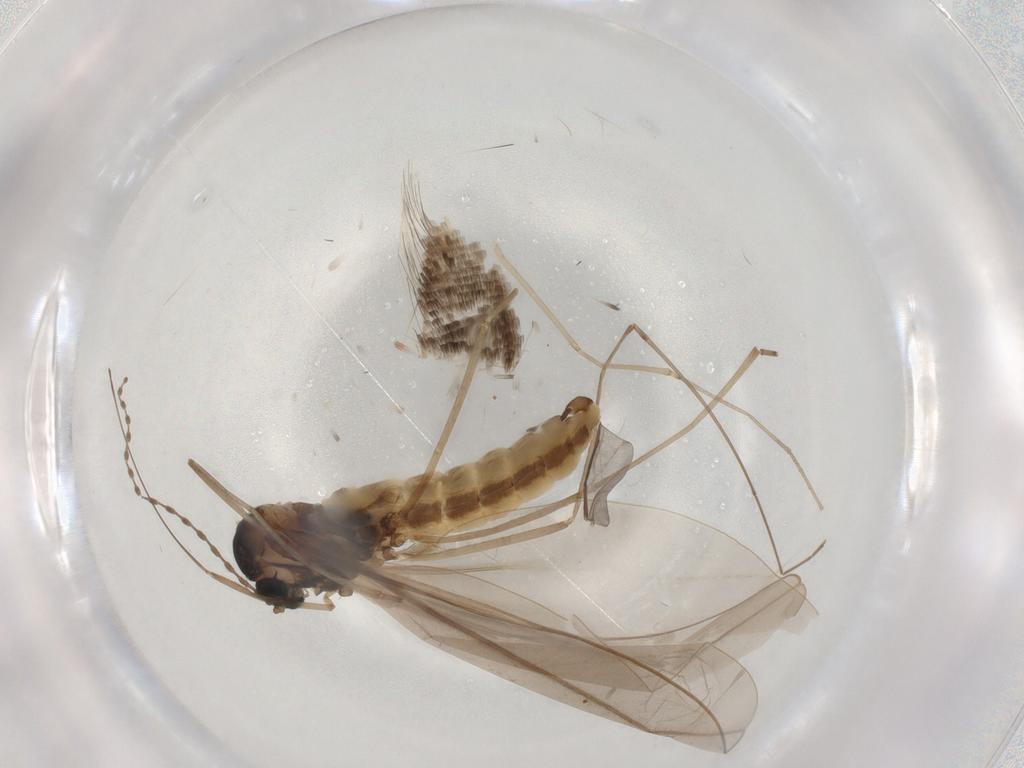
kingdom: Animalia
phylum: Arthropoda
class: Insecta
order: Diptera
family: Cecidomyiidae
